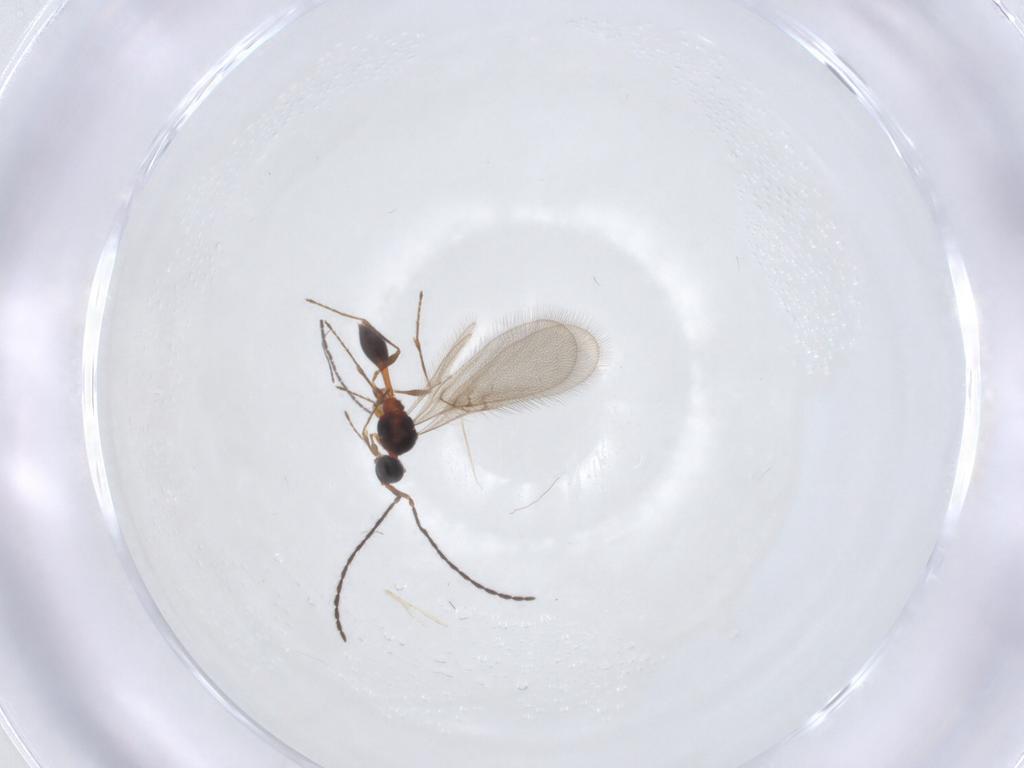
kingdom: Animalia
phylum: Arthropoda
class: Insecta
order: Hymenoptera
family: Diapriidae
